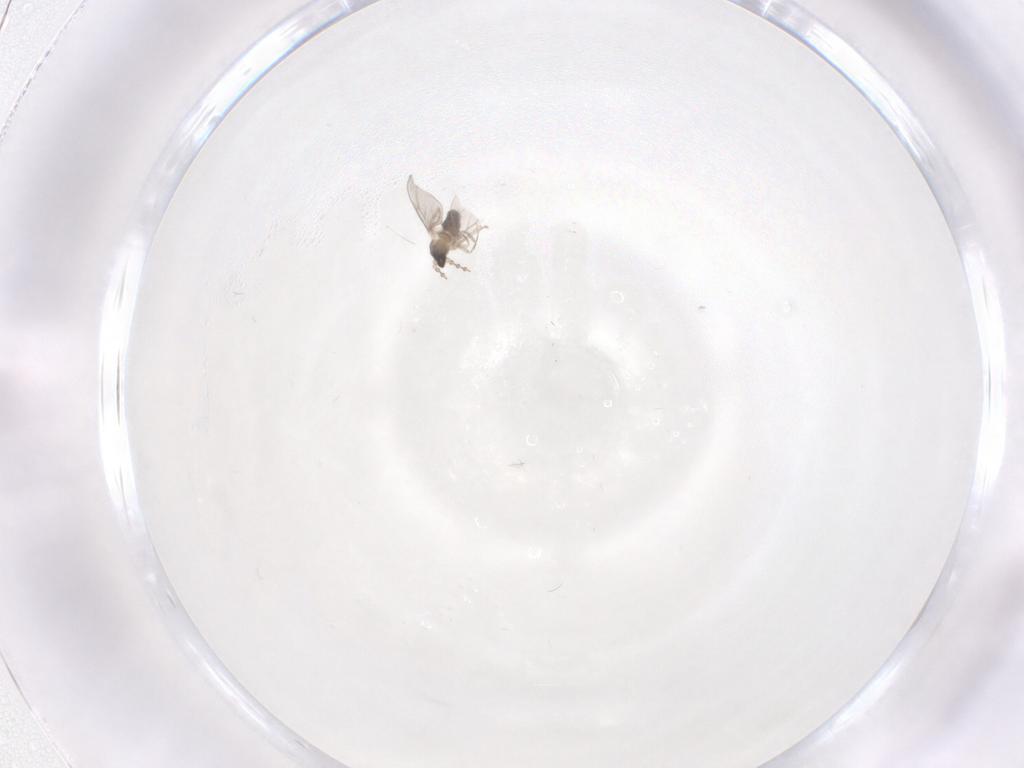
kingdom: Animalia
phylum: Arthropoda
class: Insecta
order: Diptera
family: Cecidomyiidae
